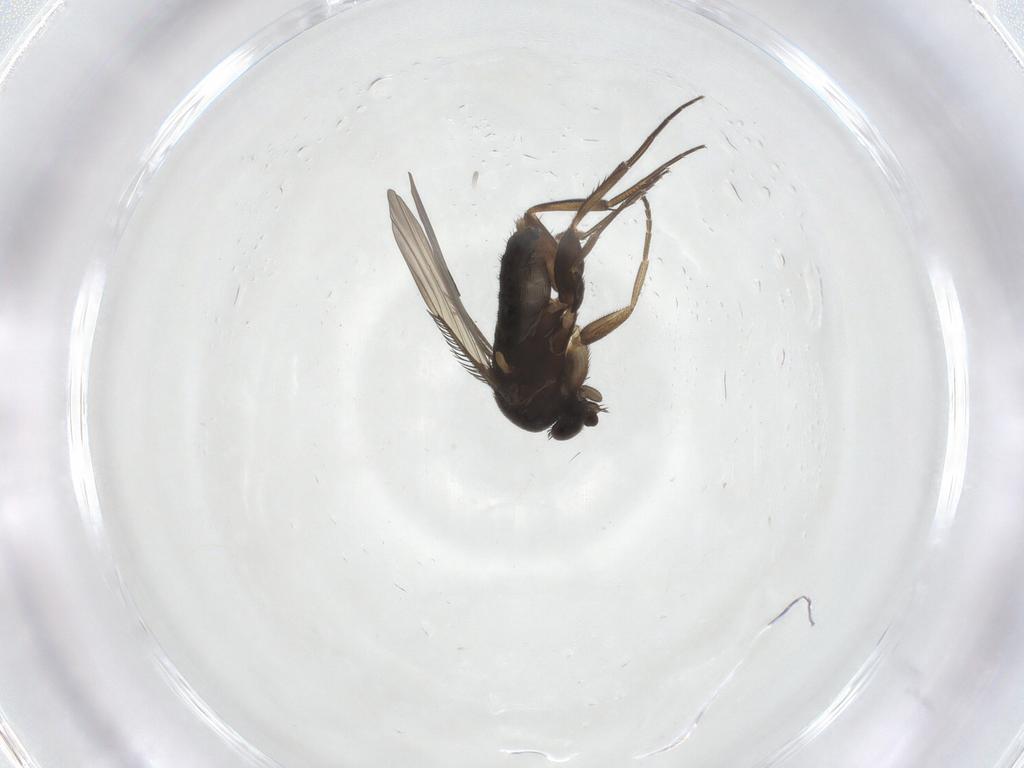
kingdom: Animalia
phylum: Arthropoda
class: Insecta
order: Diptera
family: Phoridae
